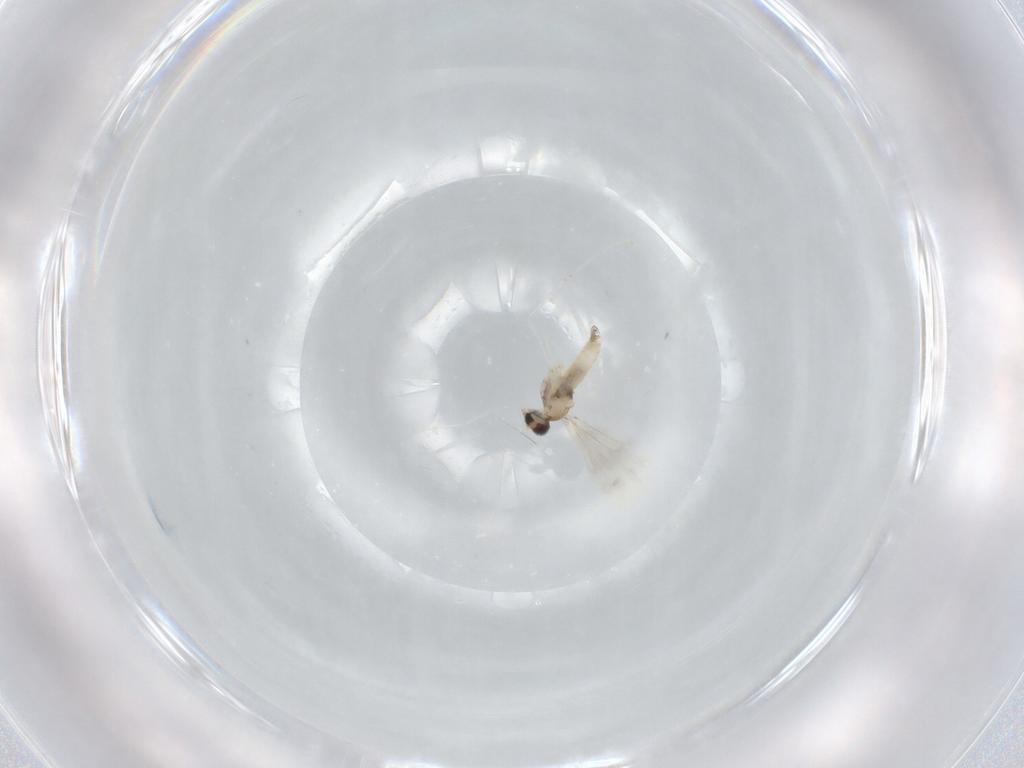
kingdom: Animalia
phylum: Arthropoda
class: Insecta
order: Diptera
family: Cecidomyiidae
